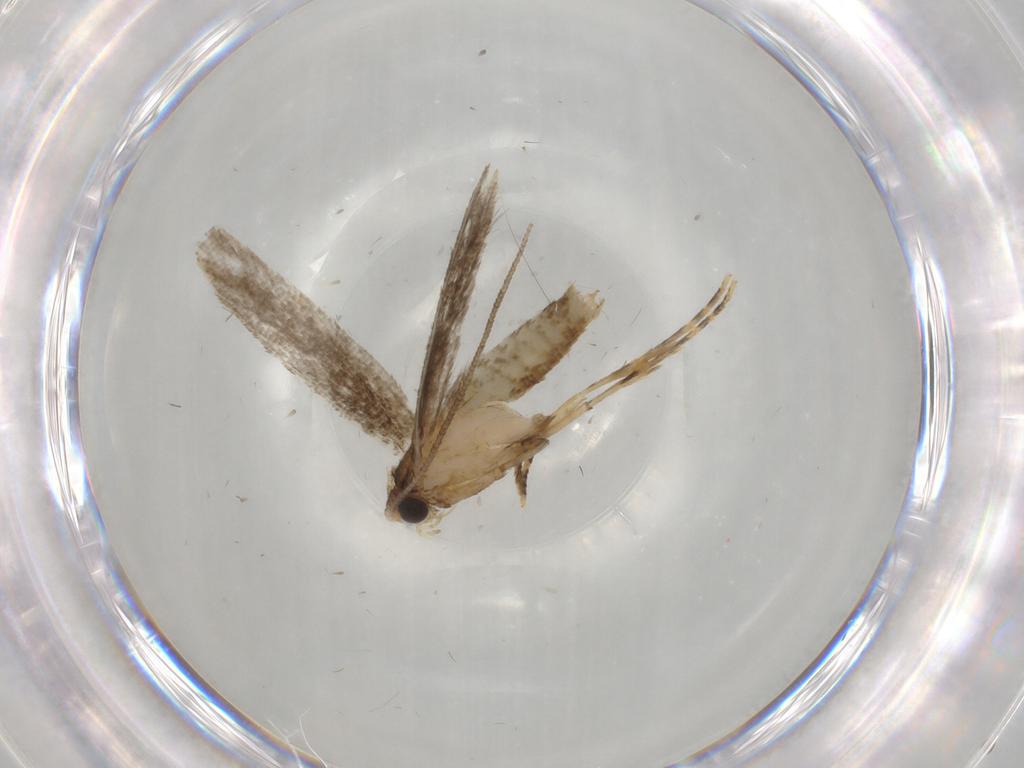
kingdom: Animalia
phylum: Arthropoda
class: Insecta
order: Lepidoptera
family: Tineidae
